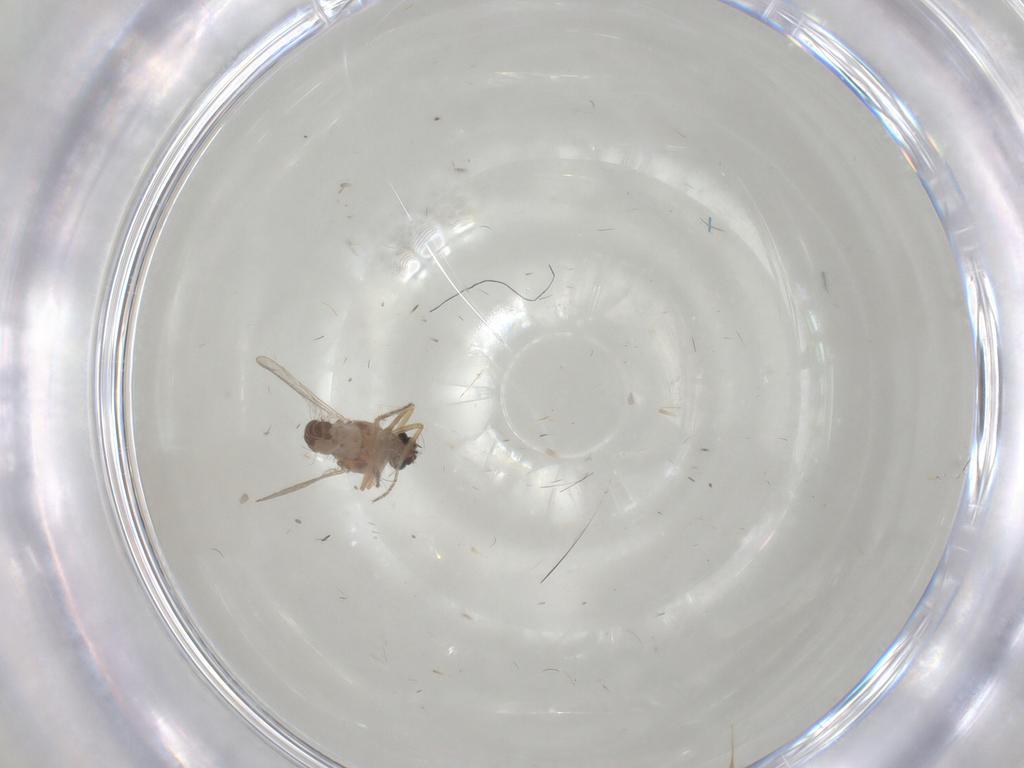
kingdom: Animalia
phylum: Arthropoda
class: Insecta
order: Diptera
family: Ceratopogonidae
